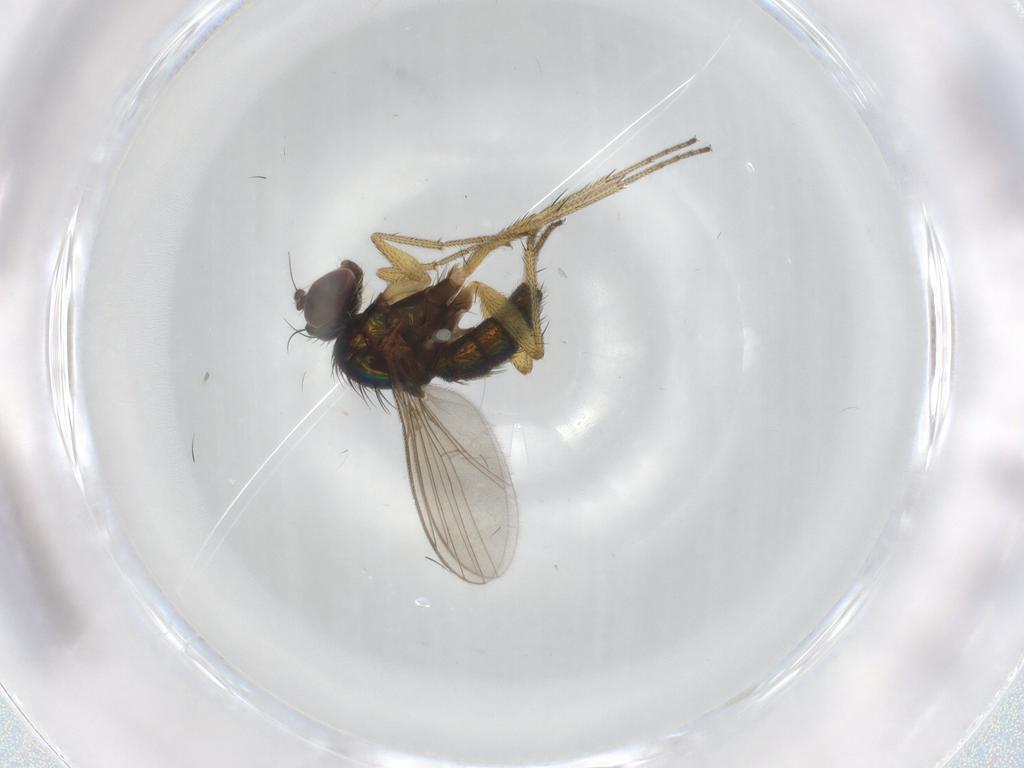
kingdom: Animalia
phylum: Arthropoda
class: Insecta
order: Diptera
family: Dolichopodidae
